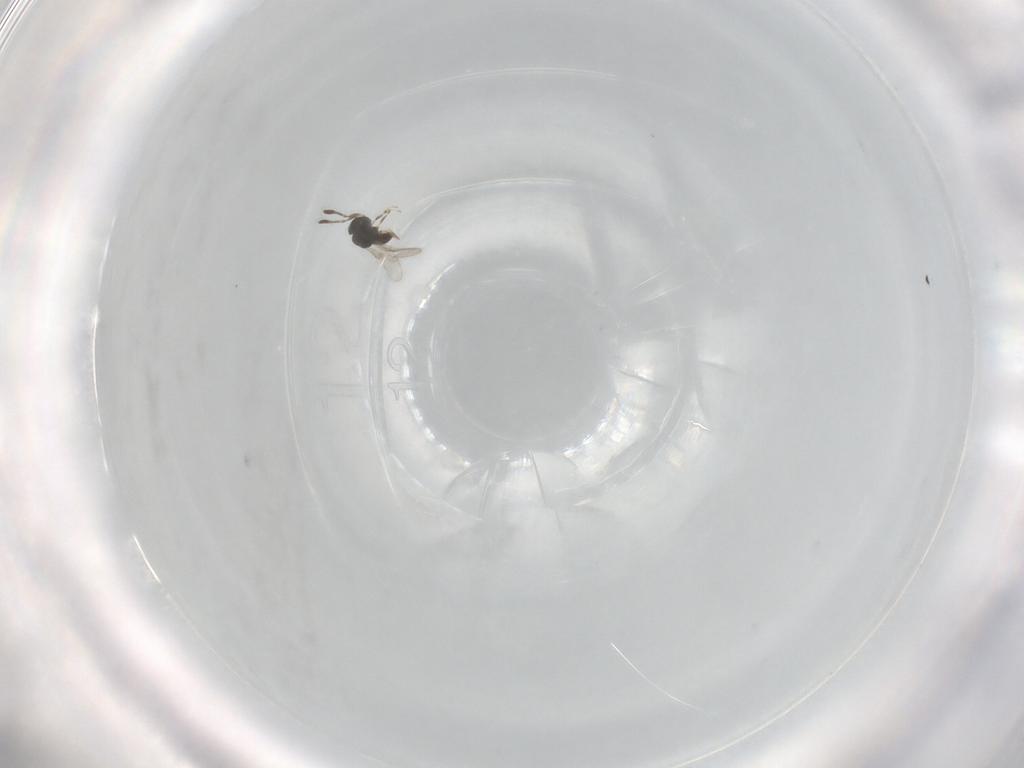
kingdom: Animalia
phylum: Arthropoda
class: Insecta
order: Hymenoptera
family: Scelionidae
